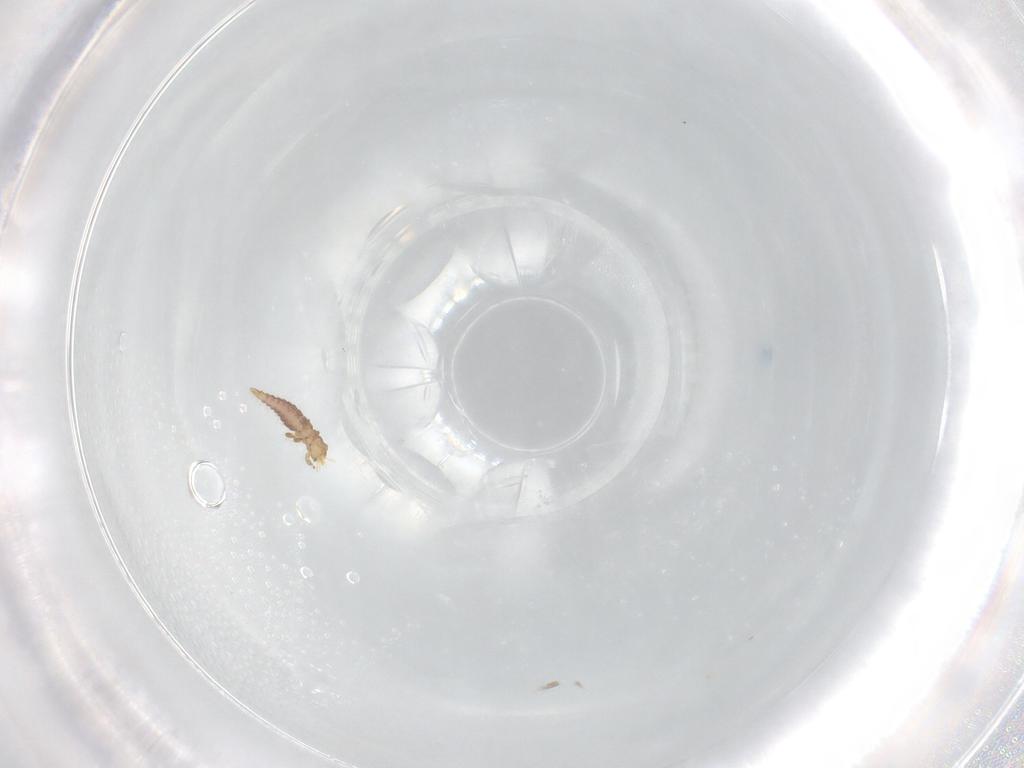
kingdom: Animalia
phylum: Arthropoda
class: Insecta
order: Neuroptera
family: Mantispidae
